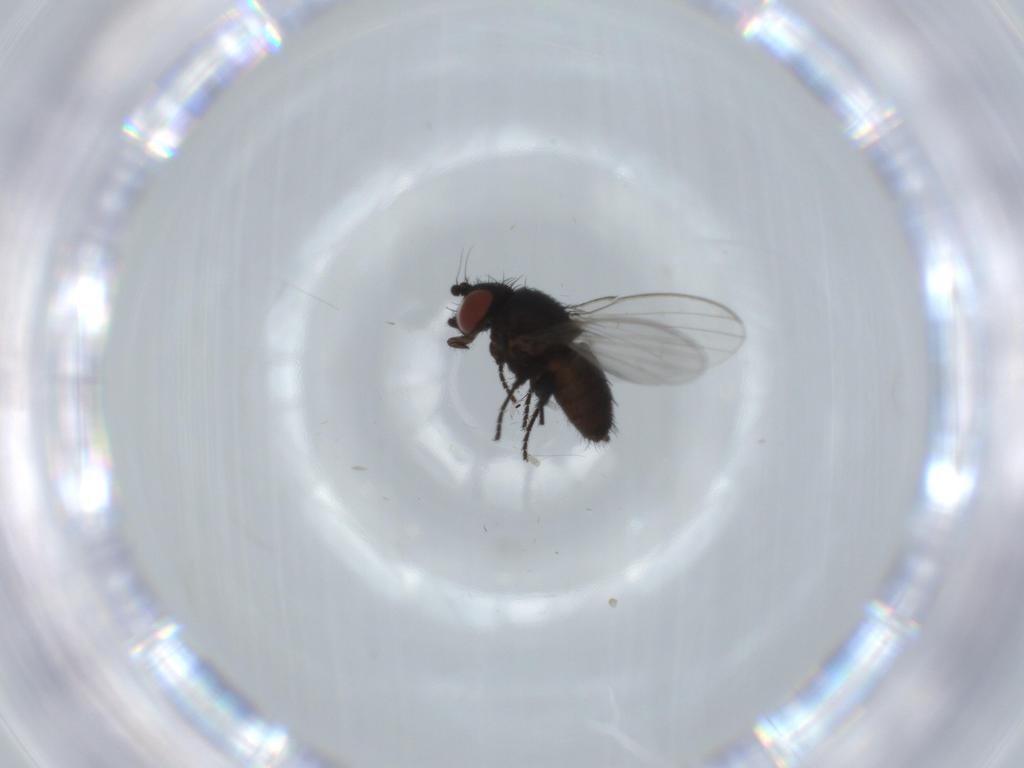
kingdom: Animalia
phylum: Arthropoda
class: Insecta
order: Diptera
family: Milichiidae
